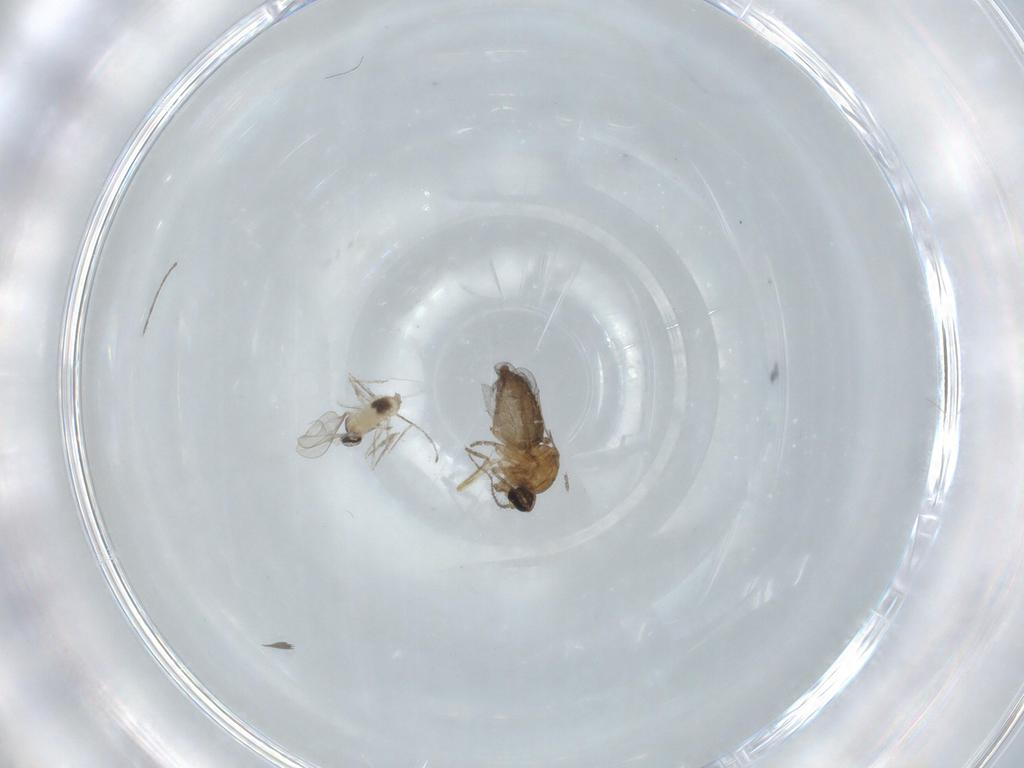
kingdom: Animalia
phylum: Arthropoda
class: Insecta
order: Diptera
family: Ceratopogonidae
